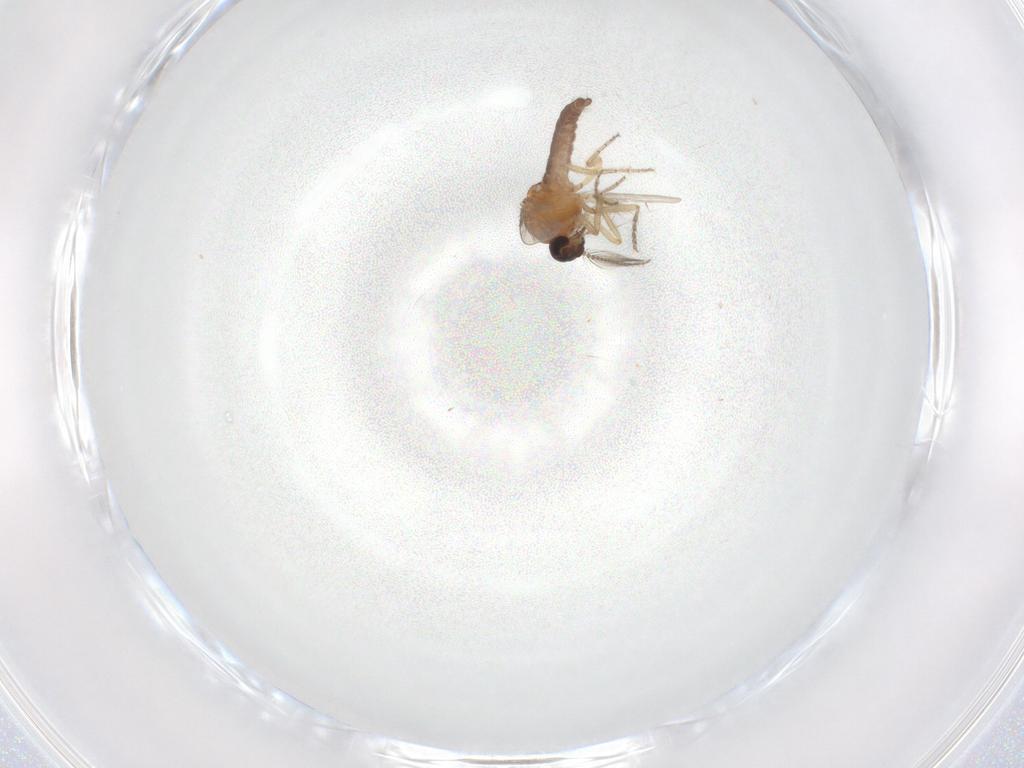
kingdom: Animalia
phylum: Arthropoda
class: Insecta
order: Diptera
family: Ceratopogonidae
